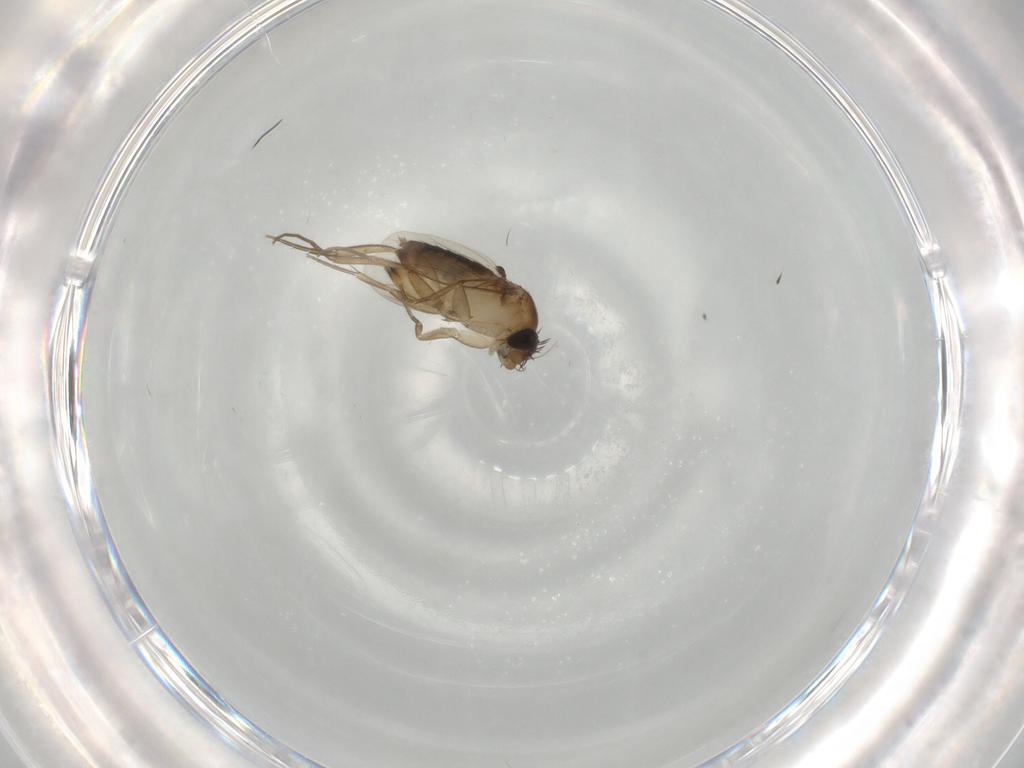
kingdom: Animalia
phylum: Arthropoda
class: Insecta
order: Diptera
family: Phoridae
